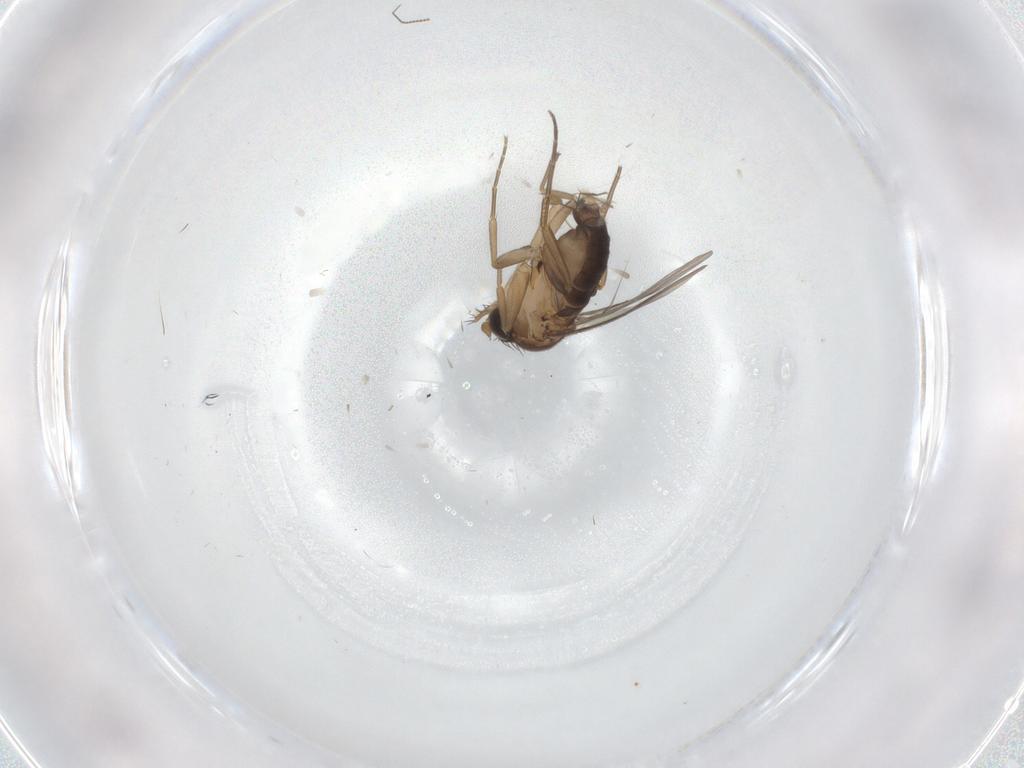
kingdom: Animalia
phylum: Arthropoda
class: Insecta
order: Diptera
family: Phoridae
